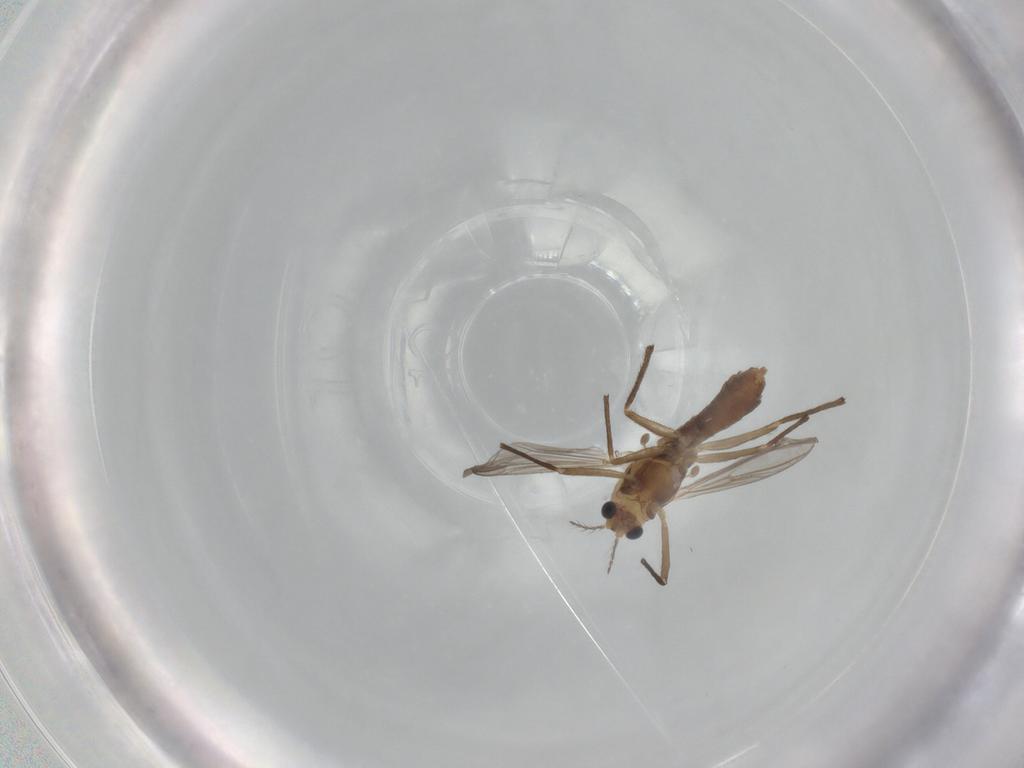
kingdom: Animalia
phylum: Arthropoda
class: Insecta
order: Diptera
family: Chironomidae
